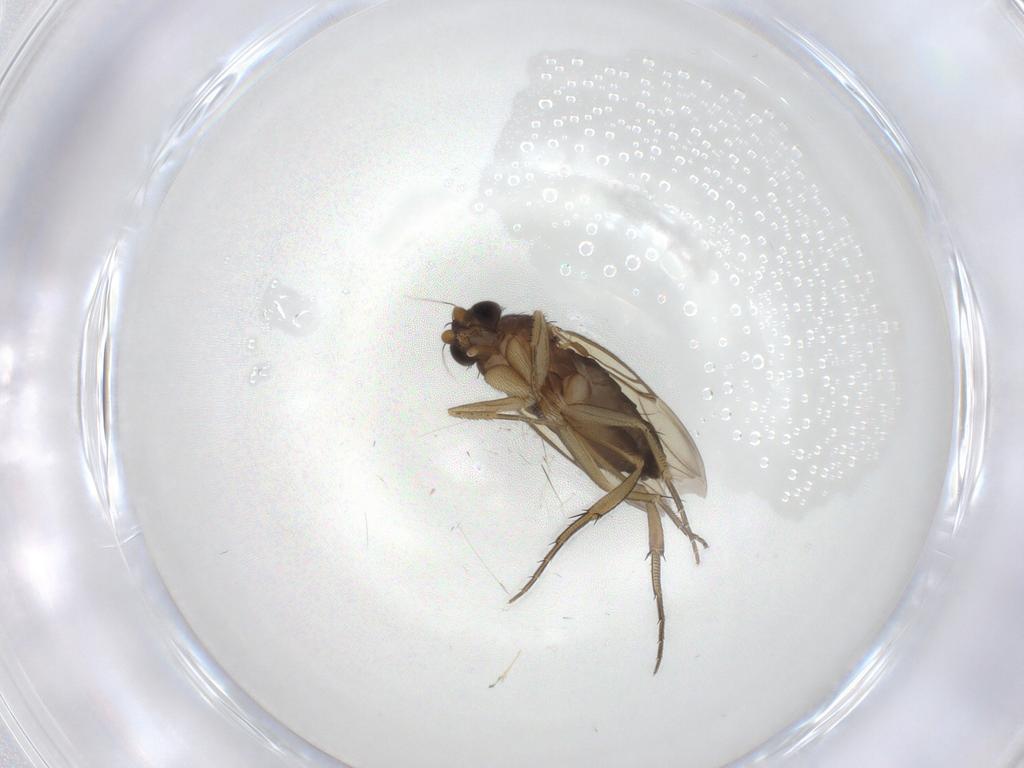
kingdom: Animalia
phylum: Arthropoda
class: Insecta
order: Diptera
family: Phoridae
